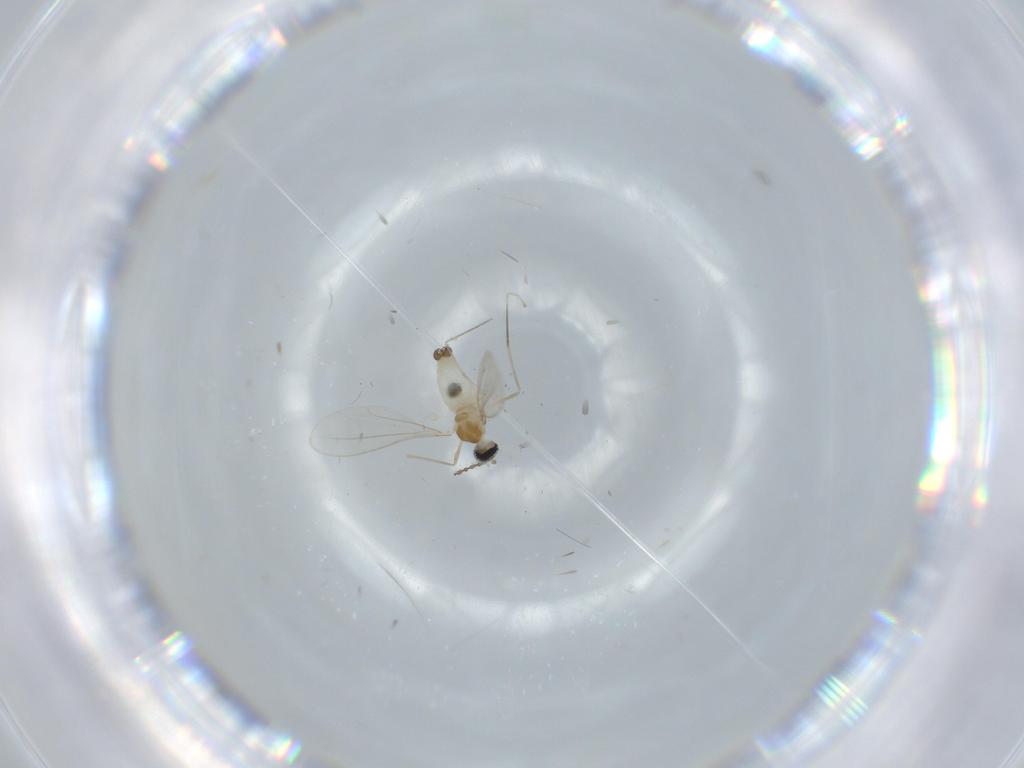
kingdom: Animalia
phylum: Arthropoda
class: Insecta
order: Diptera
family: Cecidomyiidae
